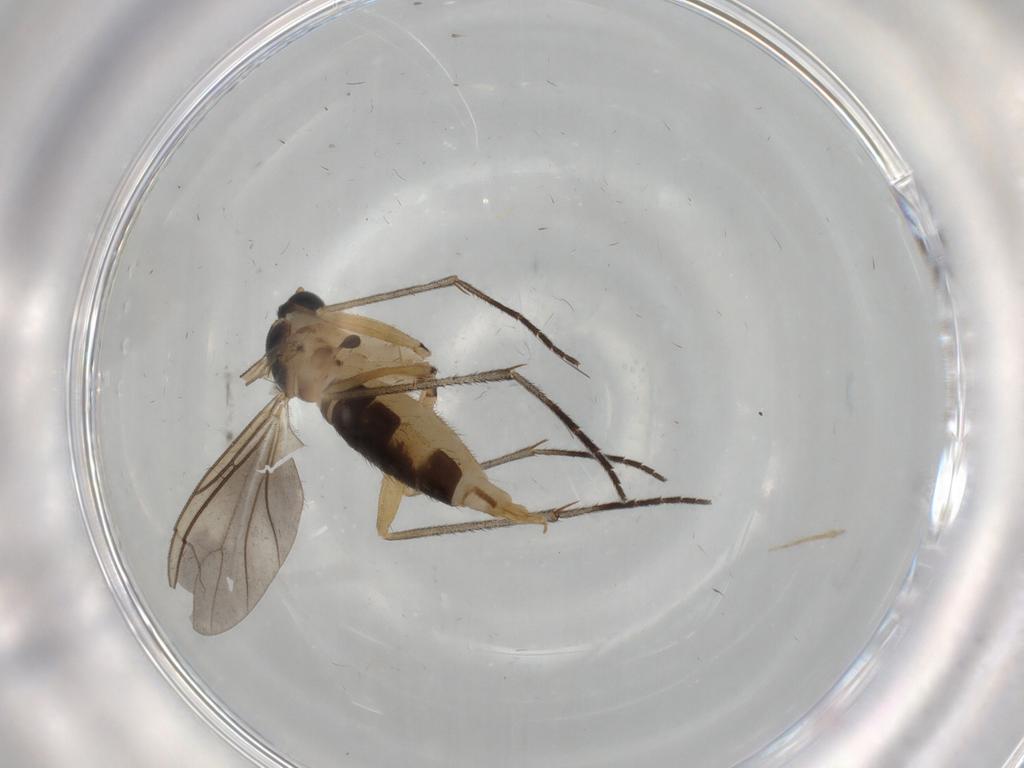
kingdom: Animalia
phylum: Arthropoda
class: Insecta
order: Diptera
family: Sciaridae
